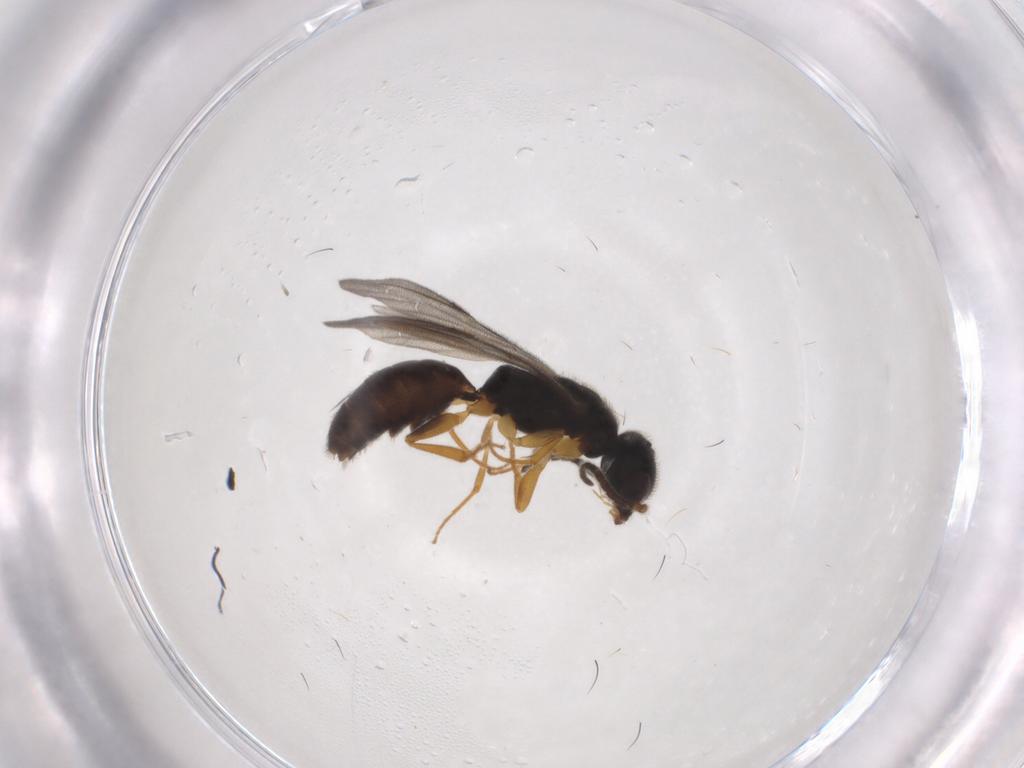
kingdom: Animalia
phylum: Arthropoda
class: Insecta
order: Hymenoptera
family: Bethylidae
